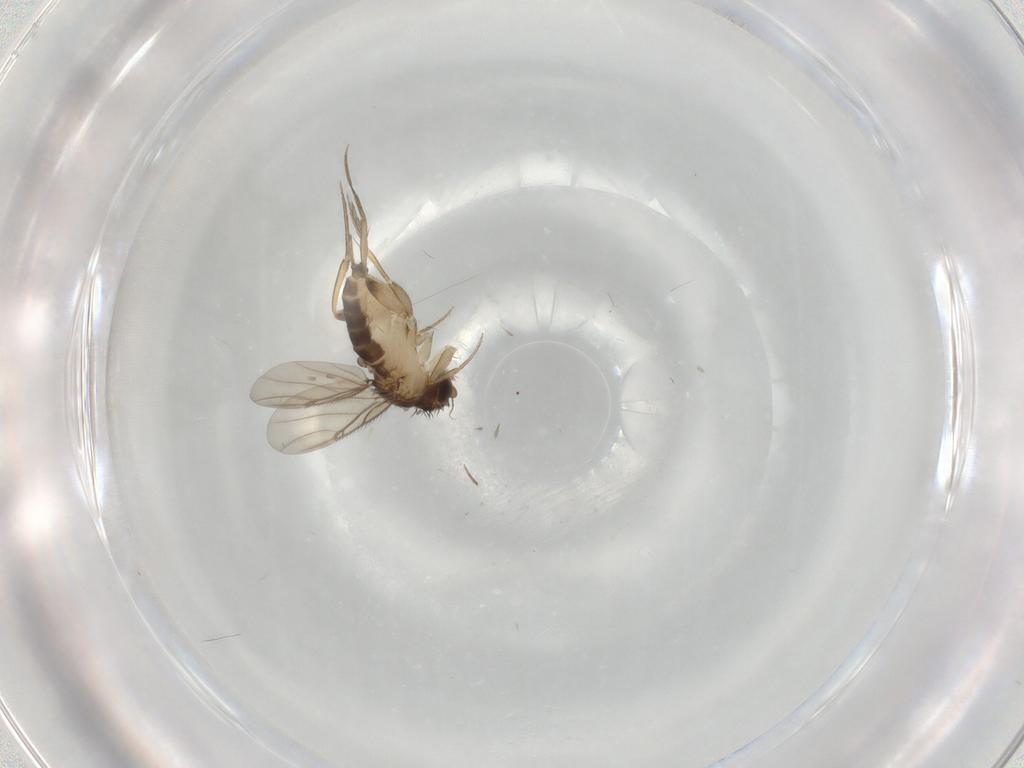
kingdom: Animalia
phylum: Arthropoda
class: Insecta
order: Diptera
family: Phoridae
